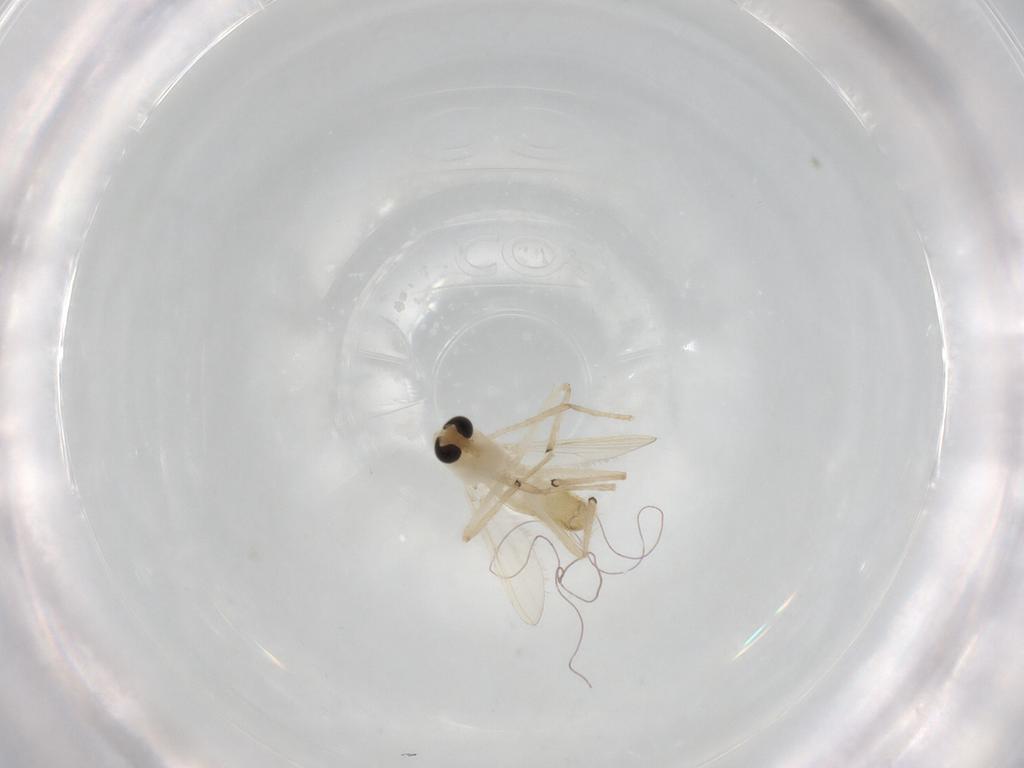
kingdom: Animalia
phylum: Arthropoda
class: Insecta
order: Diptera
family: Chironomidae
